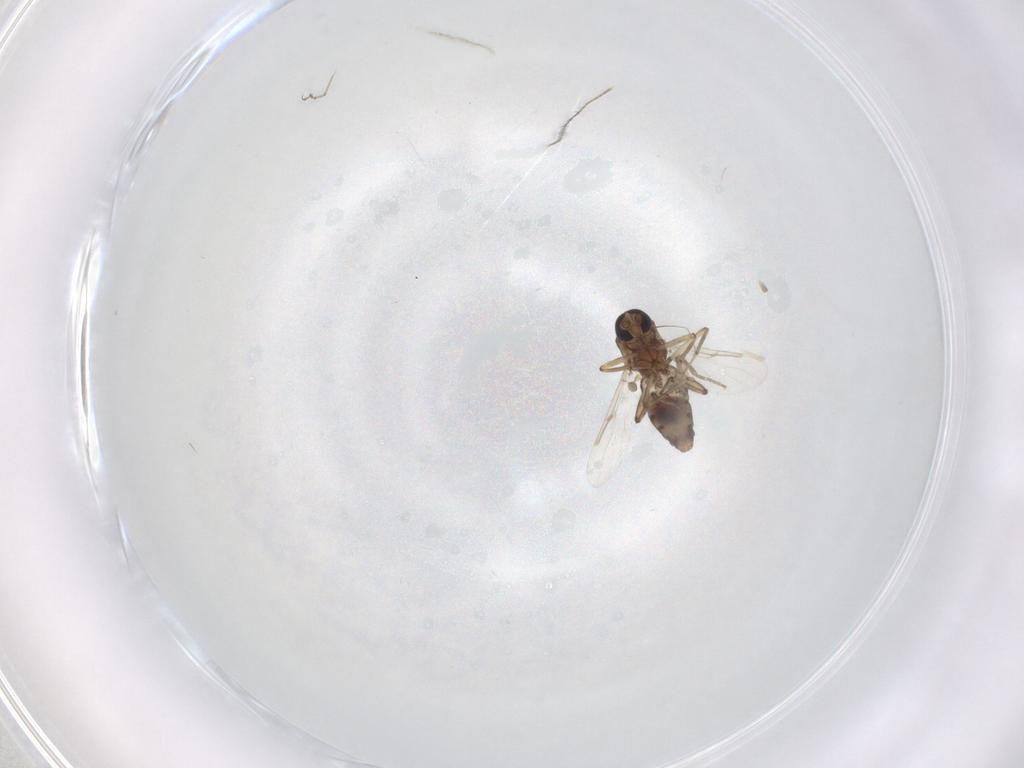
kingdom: Animalia
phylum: Arthropoda
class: Insecta
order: Diptera
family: Ceratopogonidae
